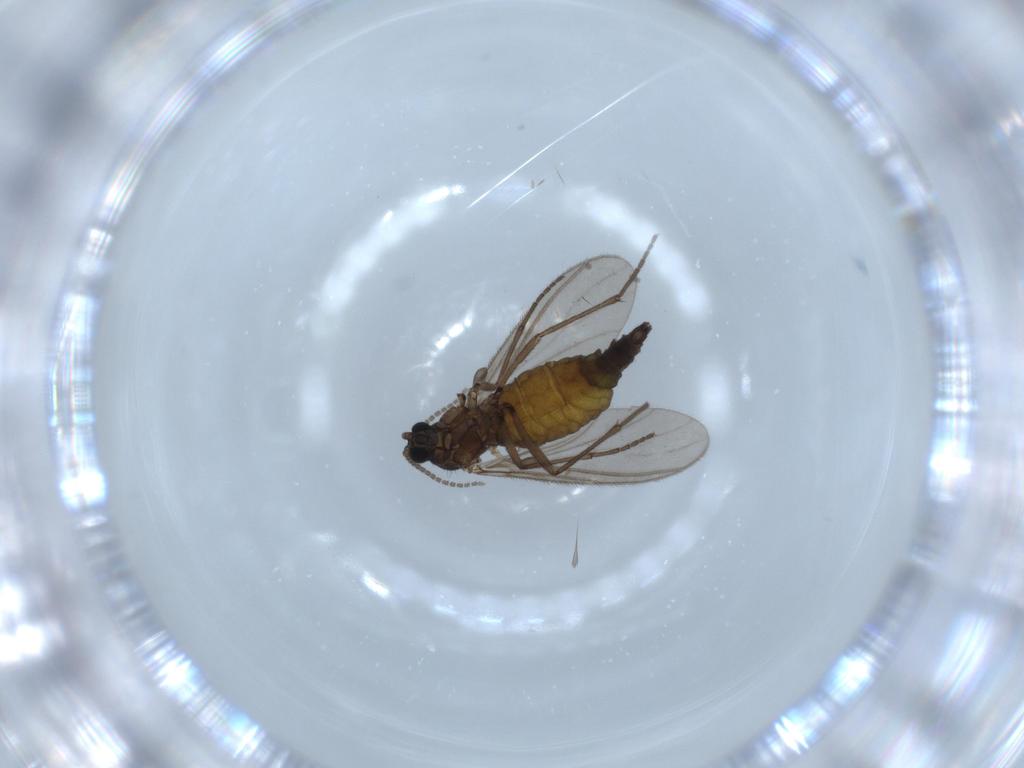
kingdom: Animalia
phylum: Arthropoda
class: Insecta
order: Diptera
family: Sciaridae
